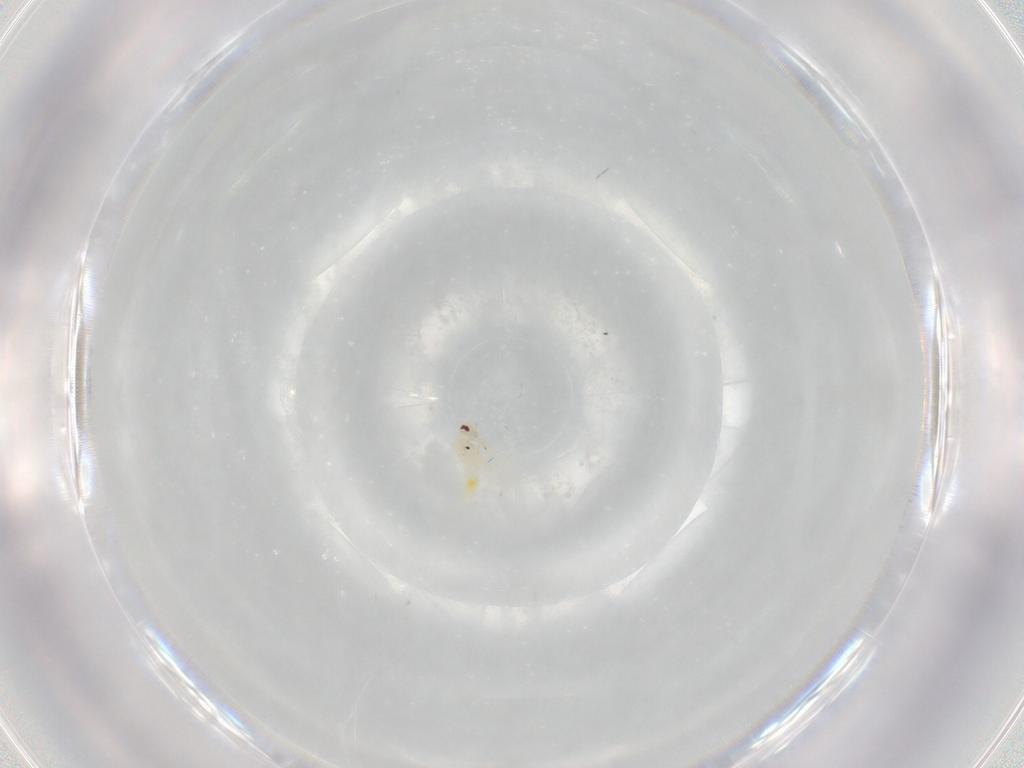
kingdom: Animalia
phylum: Arthropoda
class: Insecta
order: Hemiptera
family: Aleyrodidae
